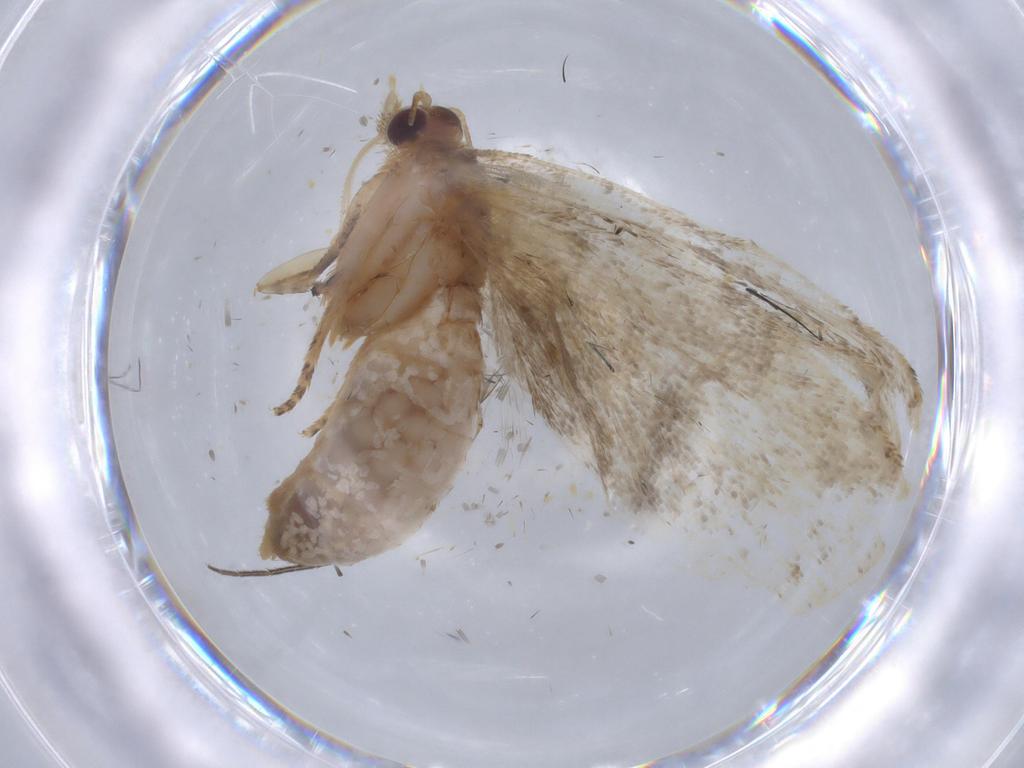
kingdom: Animalia
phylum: Arthropoda
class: Insecta
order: Lepidoptera
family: Tortricidae
